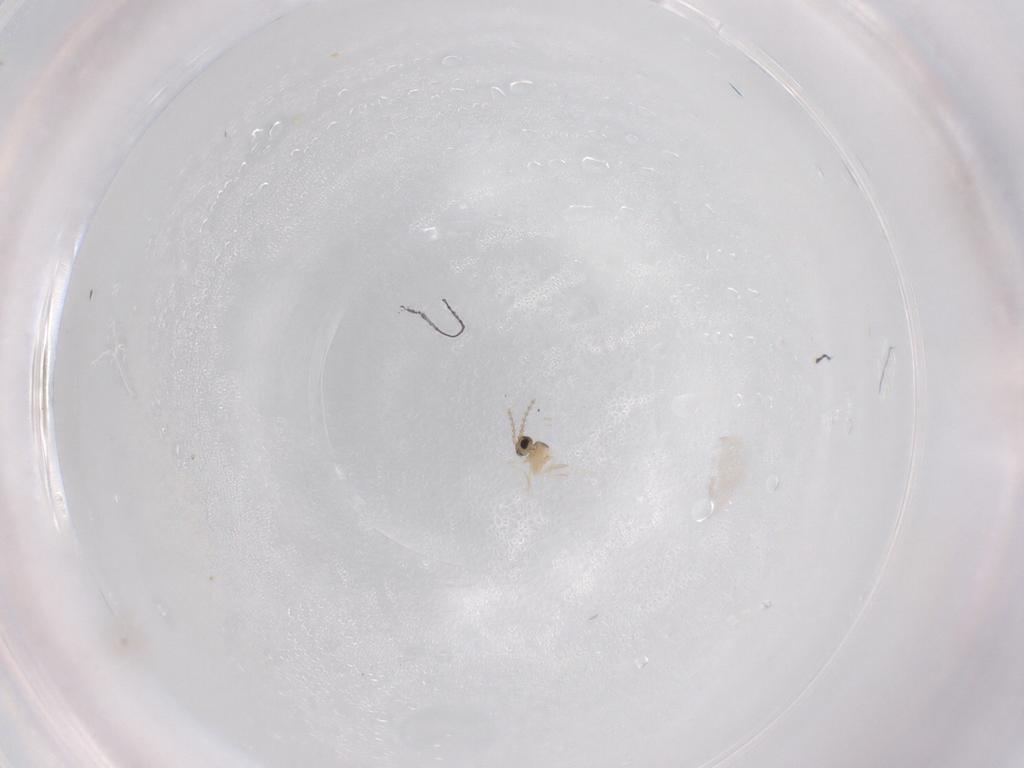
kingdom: Animalia
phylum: Arthropoda
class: Insecta
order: Diptera
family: Cecidomyiidae
